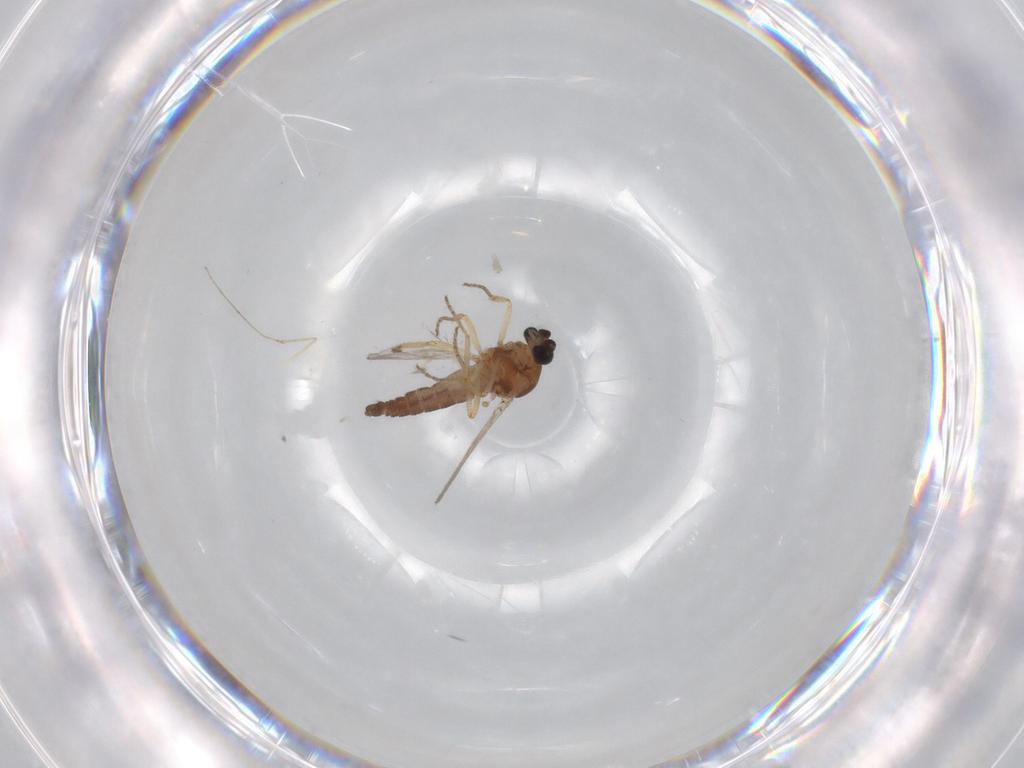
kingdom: Animalia
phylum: Arthropoda
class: Insecta
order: Diptera
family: Ceratopogonidae
